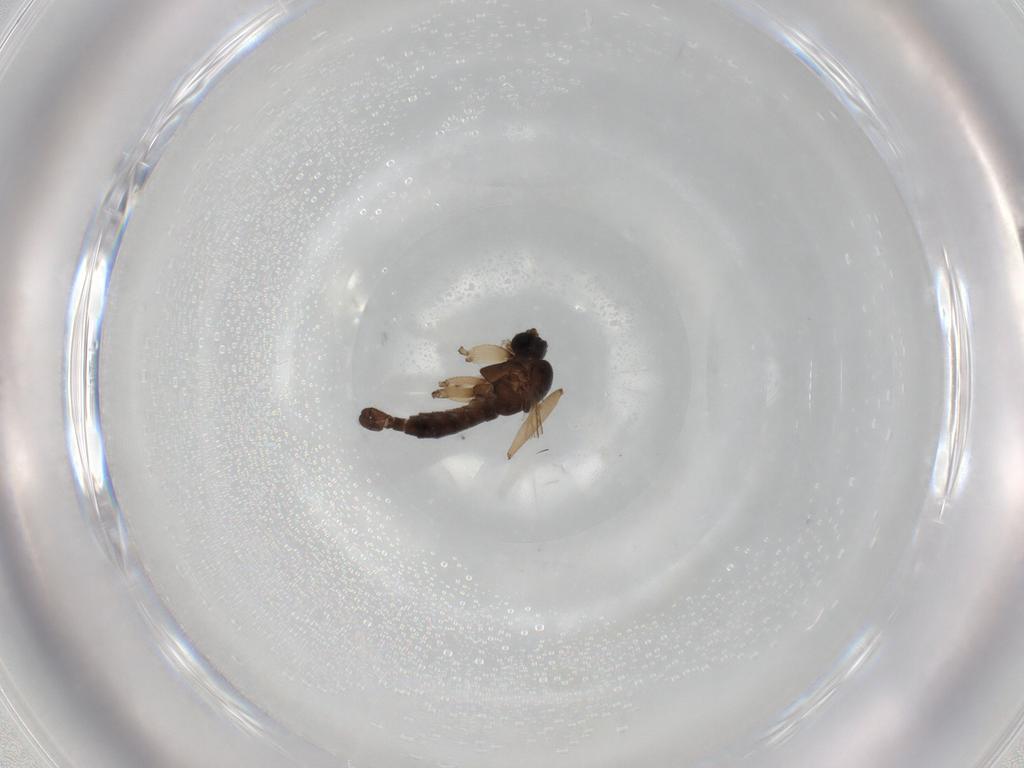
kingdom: Animalia
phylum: Arthropoda
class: Insecta
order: Diptera
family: Sciaridae
